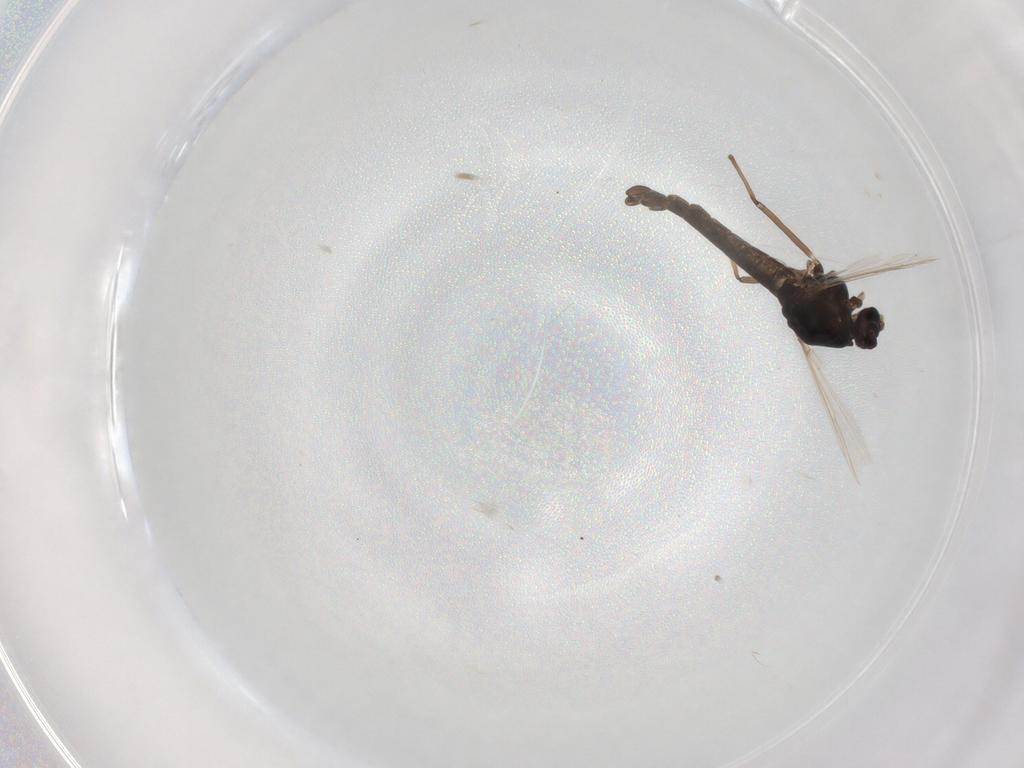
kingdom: Animalia
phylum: Arthropoda
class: Insecta
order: Diptera
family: Chironomidae
